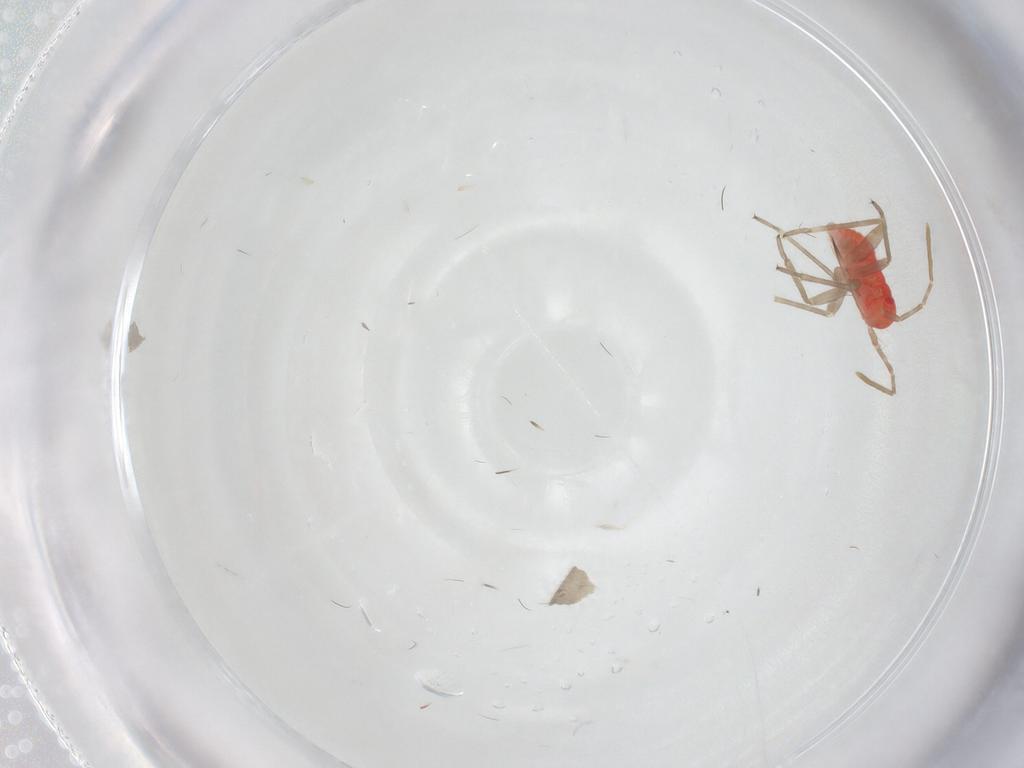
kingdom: Animalia
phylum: Arthropoda
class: Insecta
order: Hemiptera
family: Miridae
